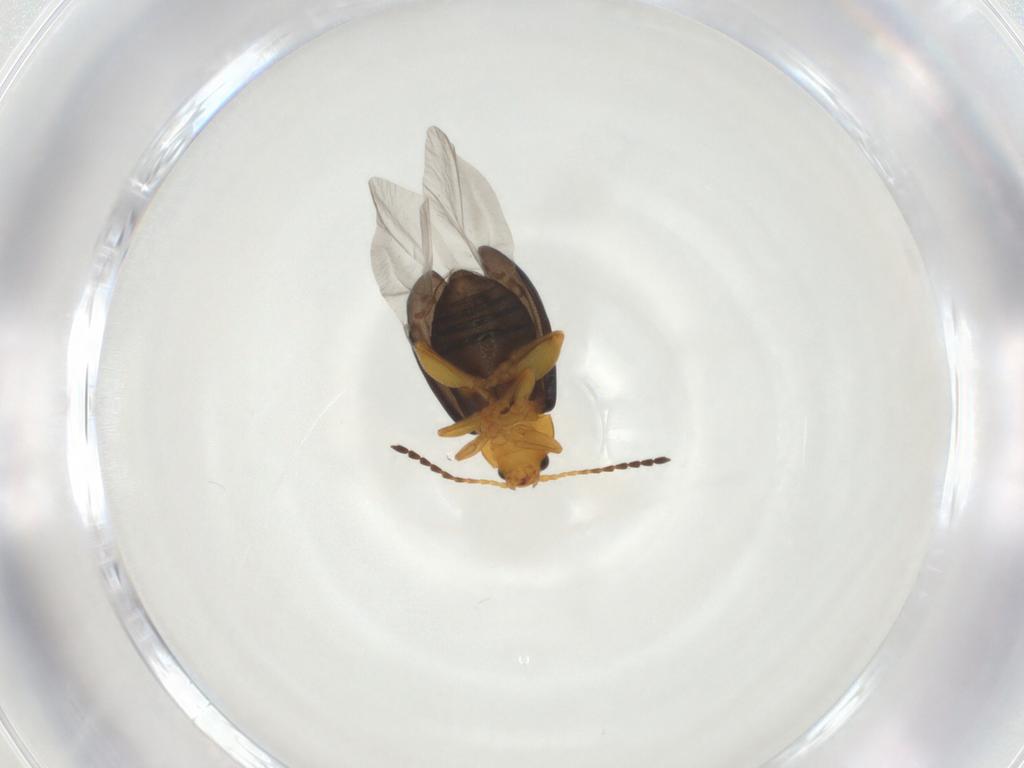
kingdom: Animalia
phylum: Arthropoda
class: Insecta
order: Coleoptera
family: Staphylinidae
